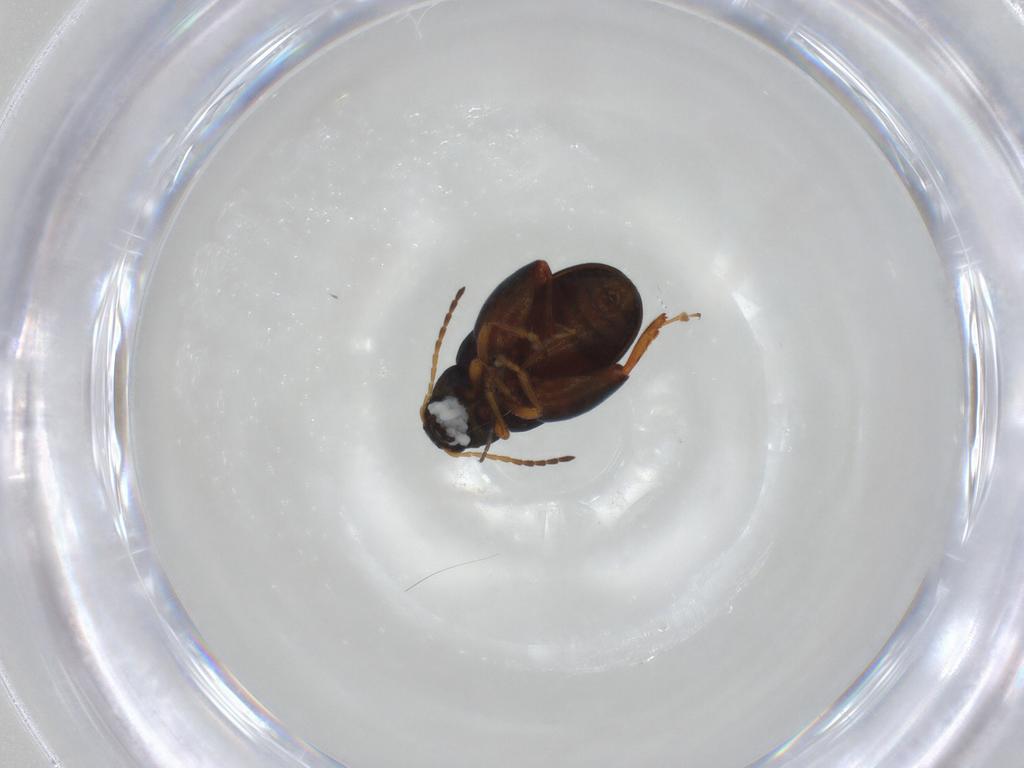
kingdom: Animalia
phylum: Arthropoda
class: Insecta
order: Coleoptera
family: Chrysomelidae
